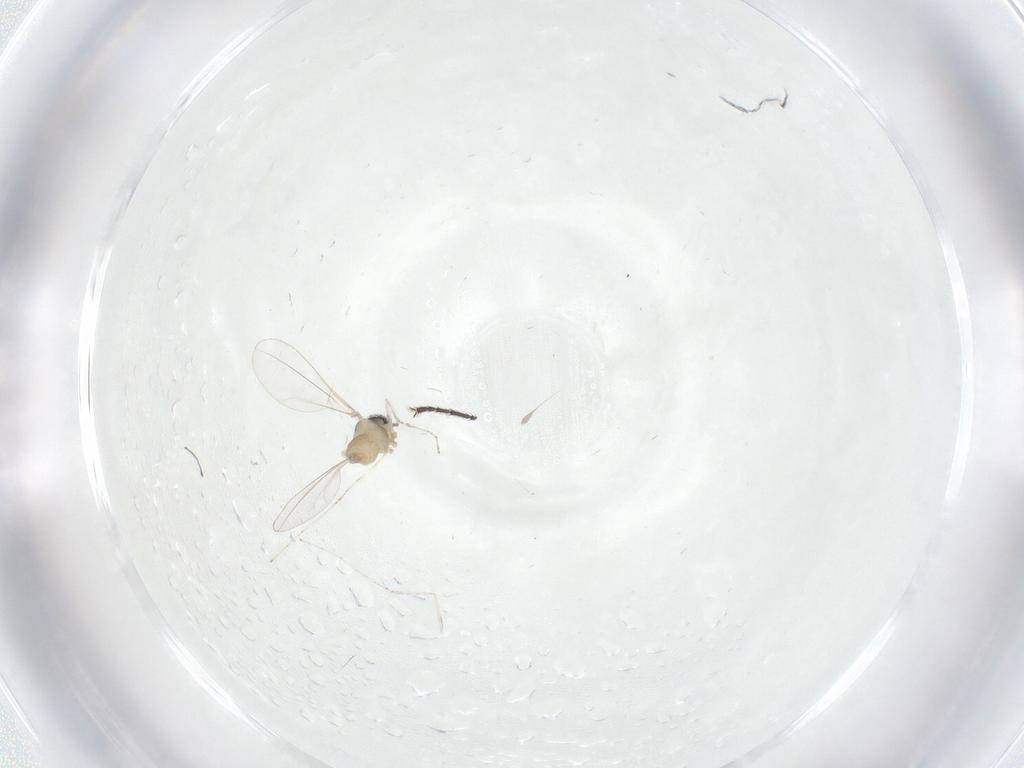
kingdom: Animalia
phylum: Arthropoda
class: Insecta
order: Diptera
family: Cecidomyiidae
